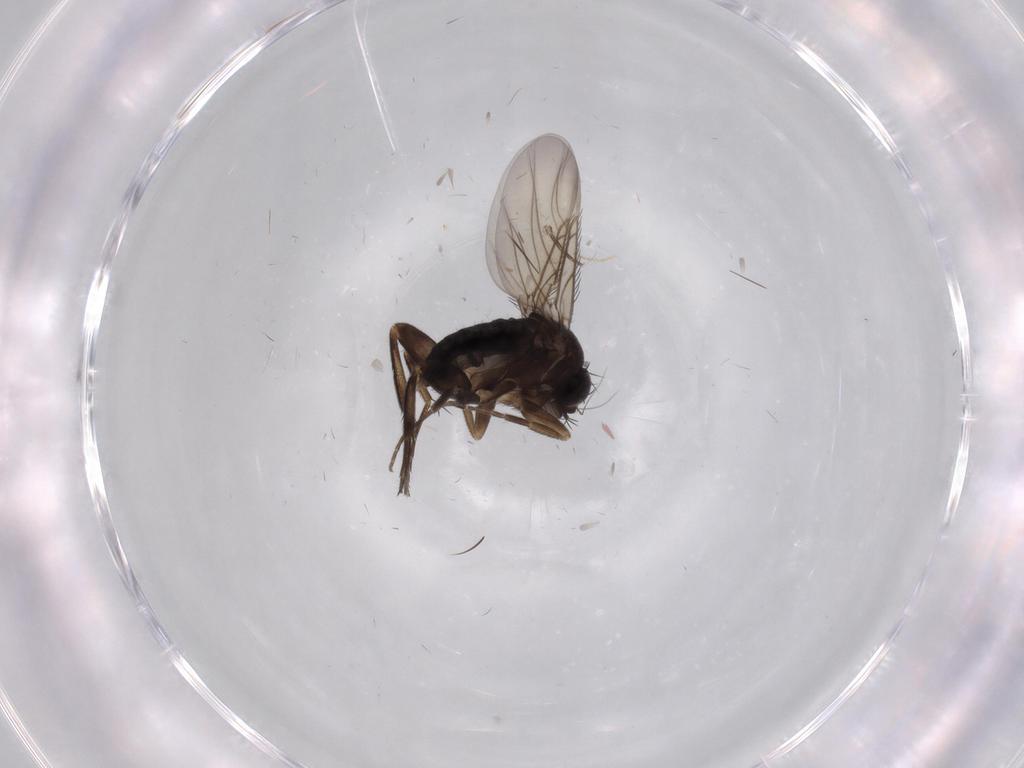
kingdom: Animalia
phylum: Arthropoda
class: Insecta
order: Diptera
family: Phoridae
